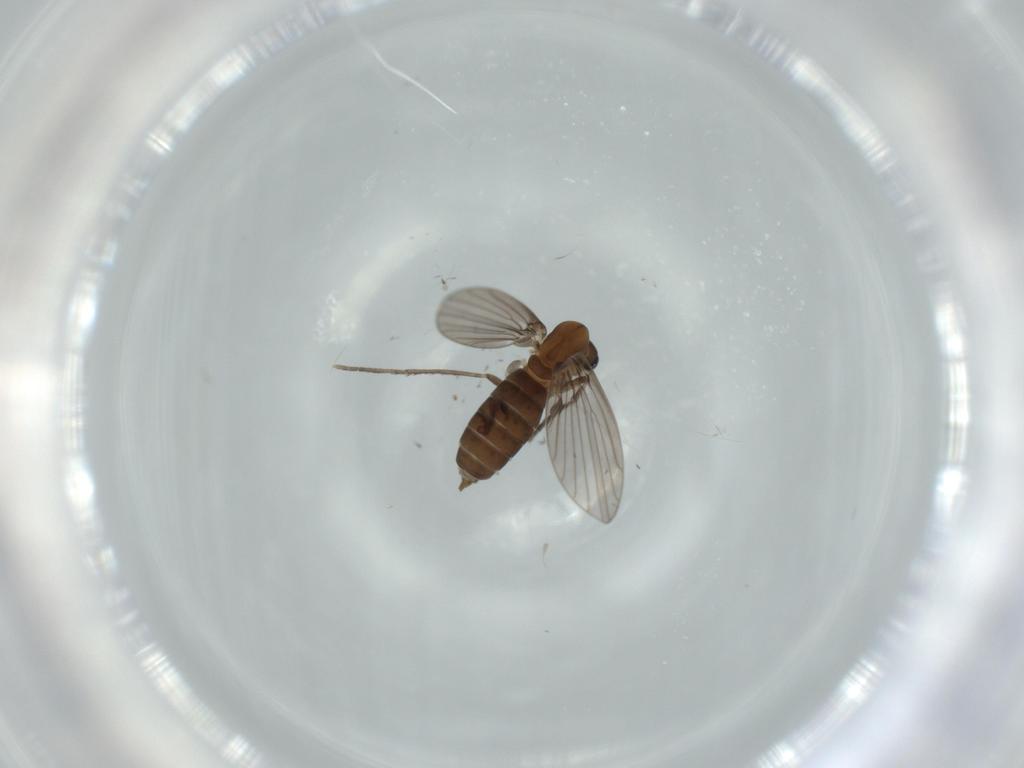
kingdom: Animalia
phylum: Arthropoda
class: Insecta
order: Diptera
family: Psychodidae
